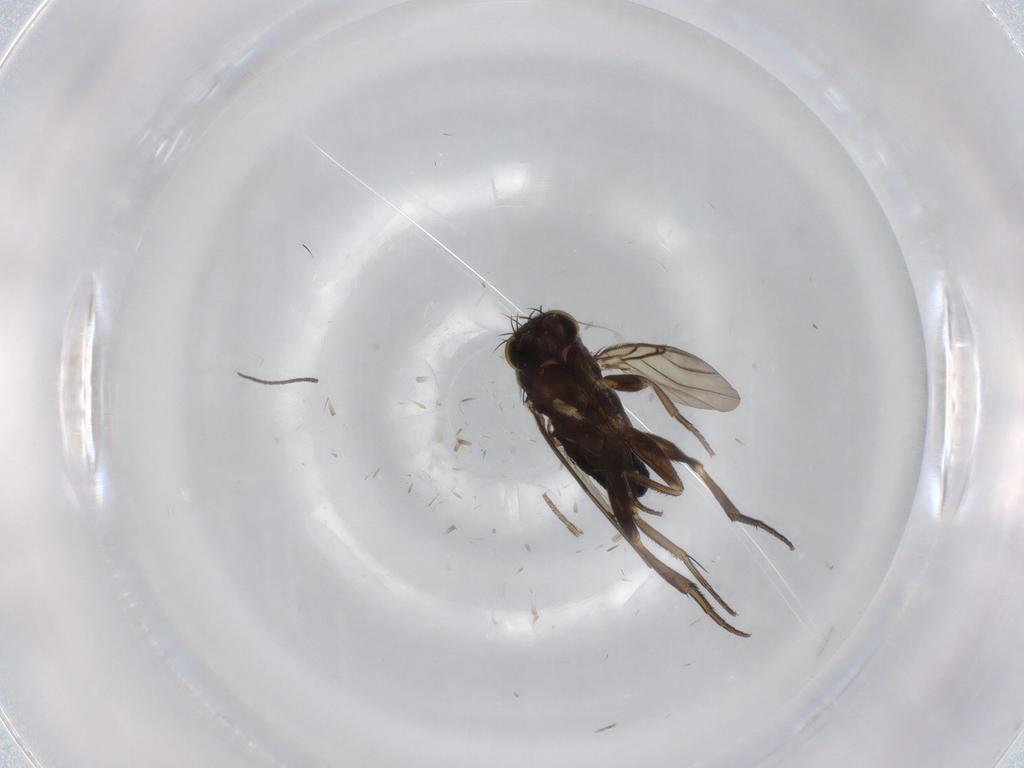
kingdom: Animalia
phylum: Arthropoda
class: Insecta
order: Diptera
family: Phoridae
